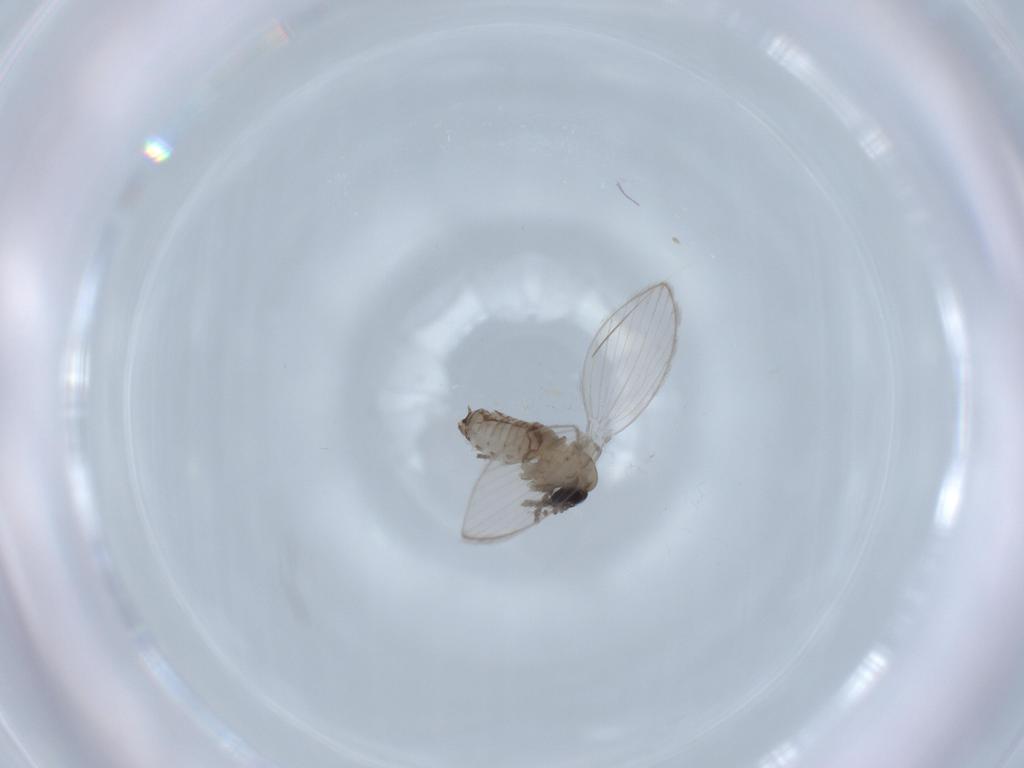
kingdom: Animalia
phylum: Arthropoda
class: Insecta
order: Diptera
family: Psychodidae
